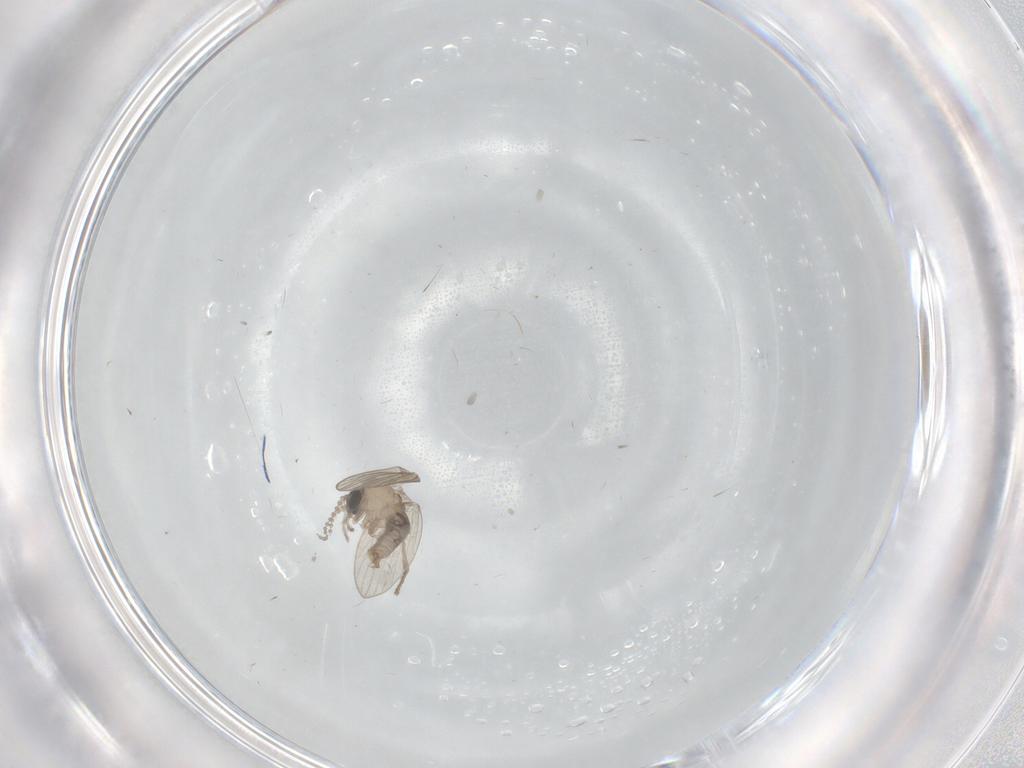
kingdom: Animalia
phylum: Arthropoda
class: Insecta
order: Diptera
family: Psychodidae
